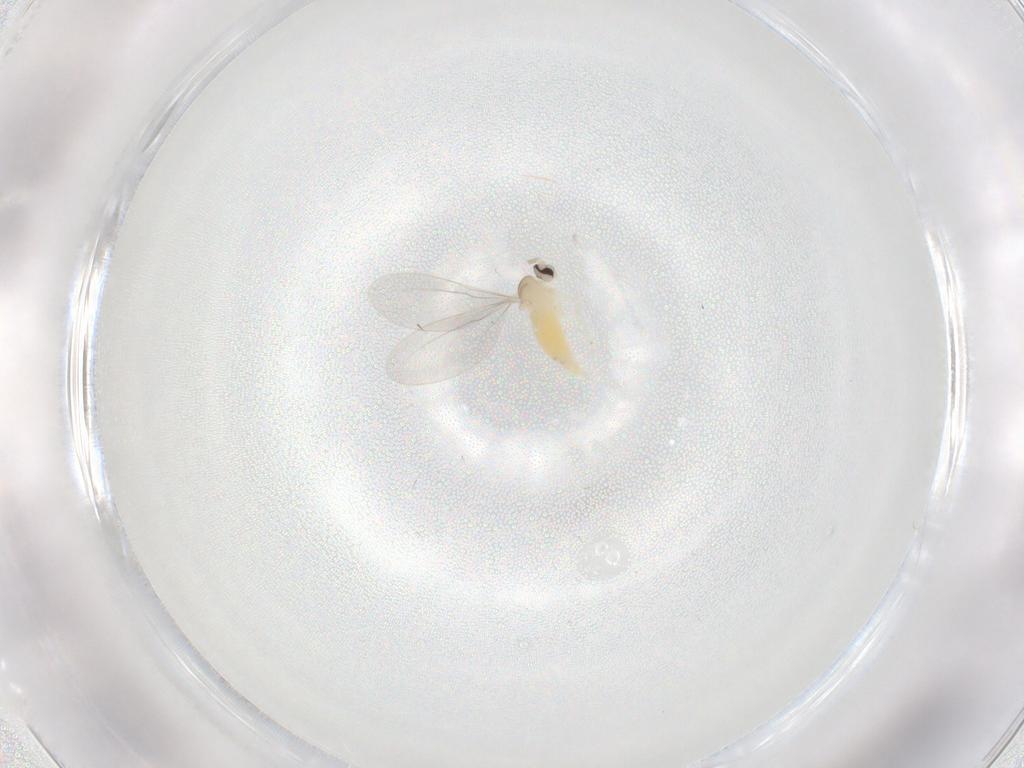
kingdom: Animalia
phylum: Arthropoda
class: Insecta
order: Diptera
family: Cecidomyiidae
